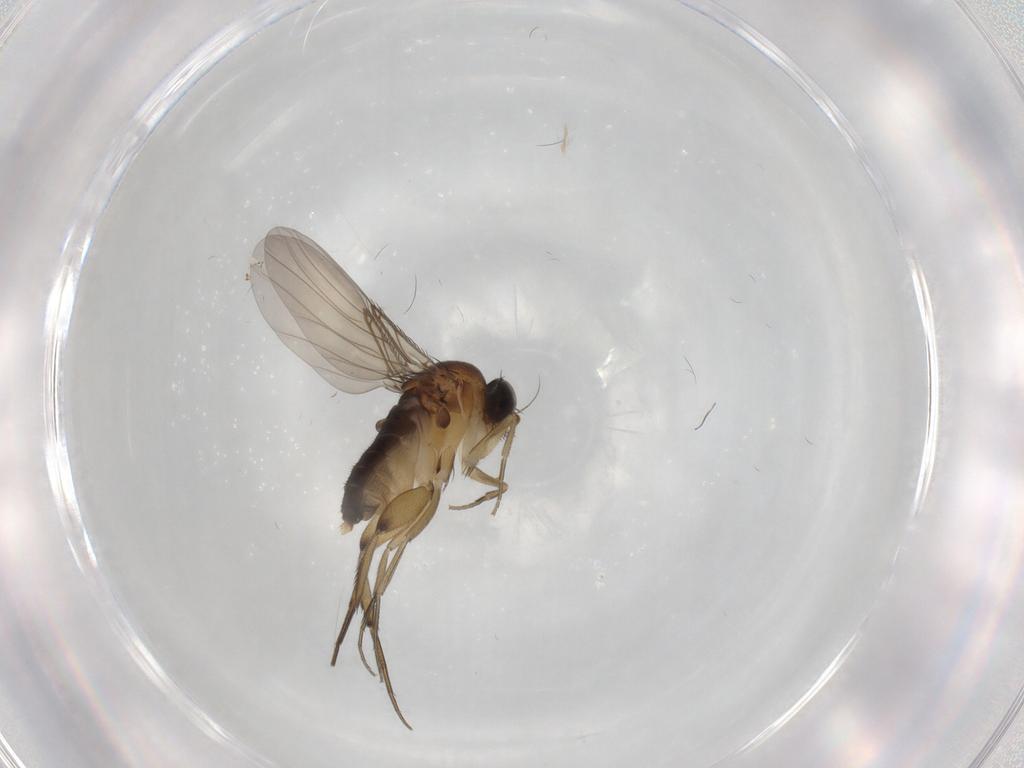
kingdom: Animalia
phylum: Arthropoda
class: Insecta
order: Diptera
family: Phoridae
